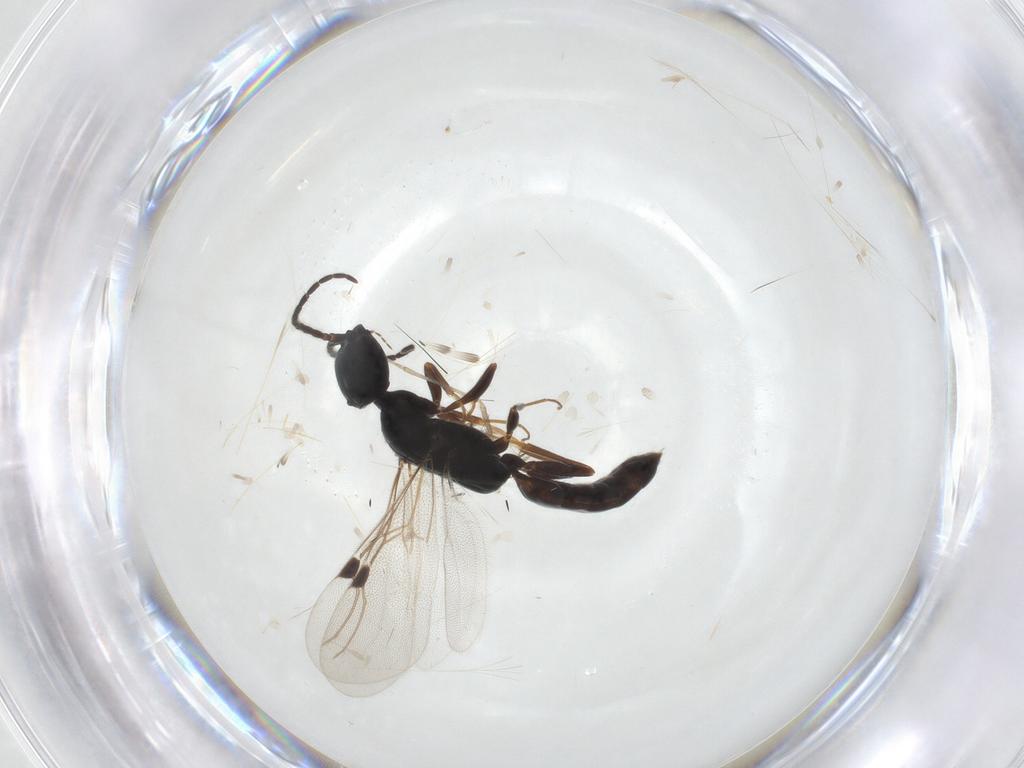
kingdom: Animalia
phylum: Arthropoda
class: Insecta
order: Hymenoptera
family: Bethylidae
